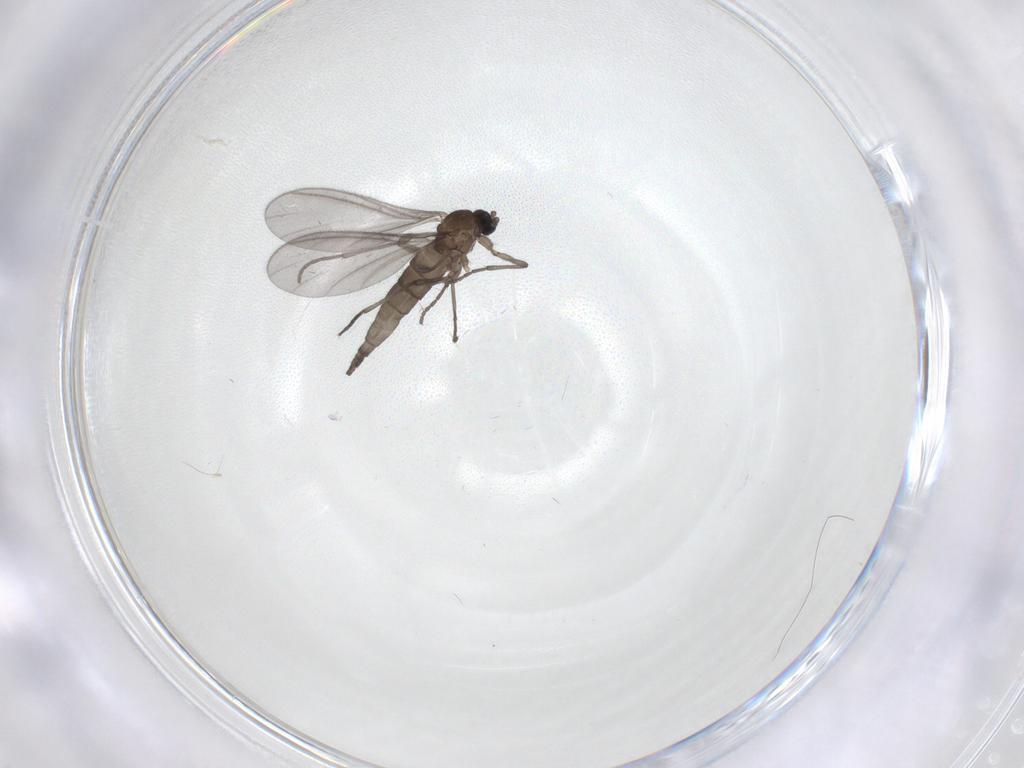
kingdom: Animalia
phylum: Arthropoda
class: Insecta
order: Diptera
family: Sciaridae
